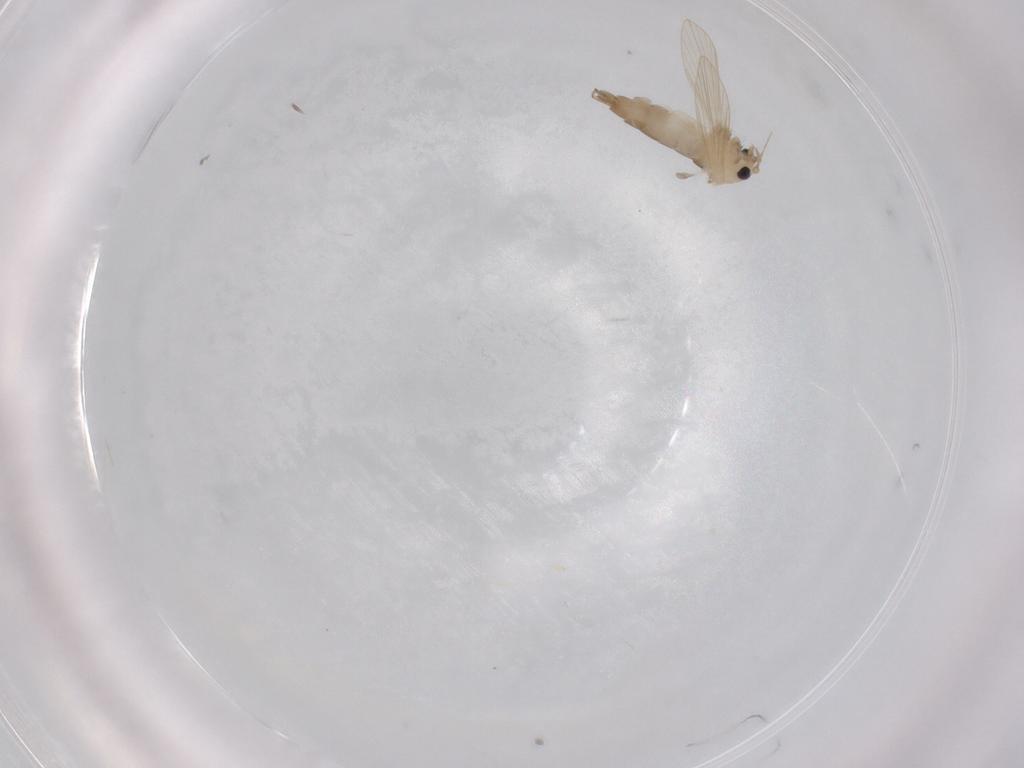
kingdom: Animalia
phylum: Arthropoda
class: Insecta
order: Diptera
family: Psychodidae
